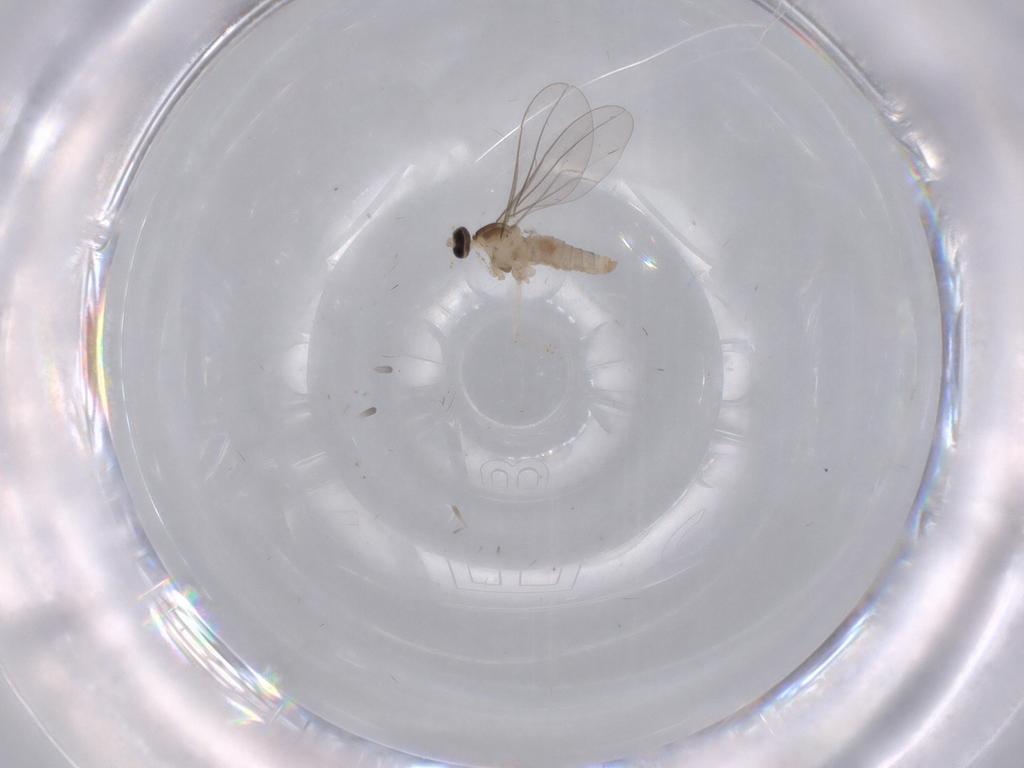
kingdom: Animalia
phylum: Arthropoda
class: Insecta
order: Diptera
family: Cecidomyiidae
